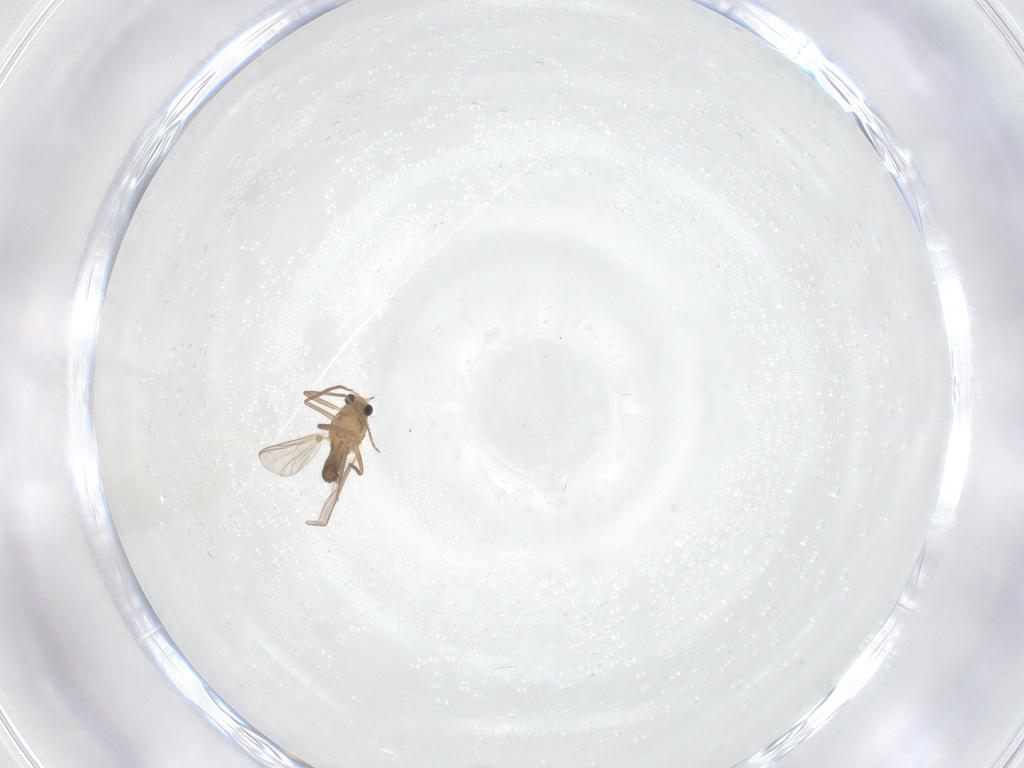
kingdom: Animalia
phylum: Arthropoda
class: Insecta
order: Diptera
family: Chironomidae
